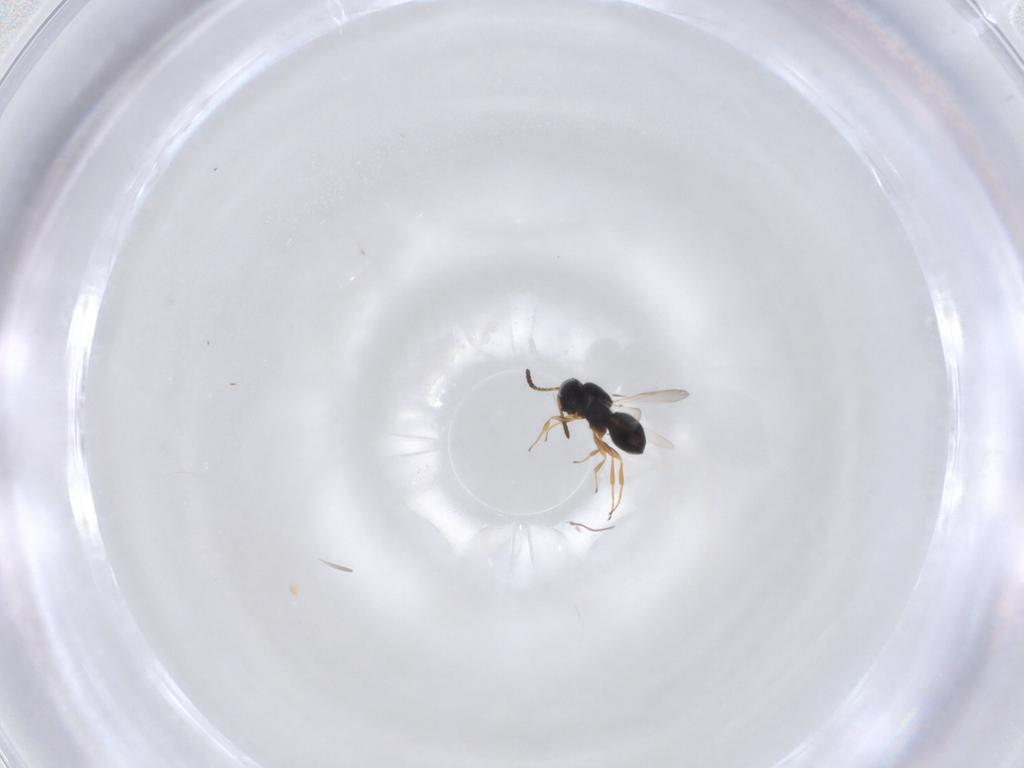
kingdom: Animalia
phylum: Arthropoda
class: Insecta
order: Hymenoptera
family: Scelionidae
